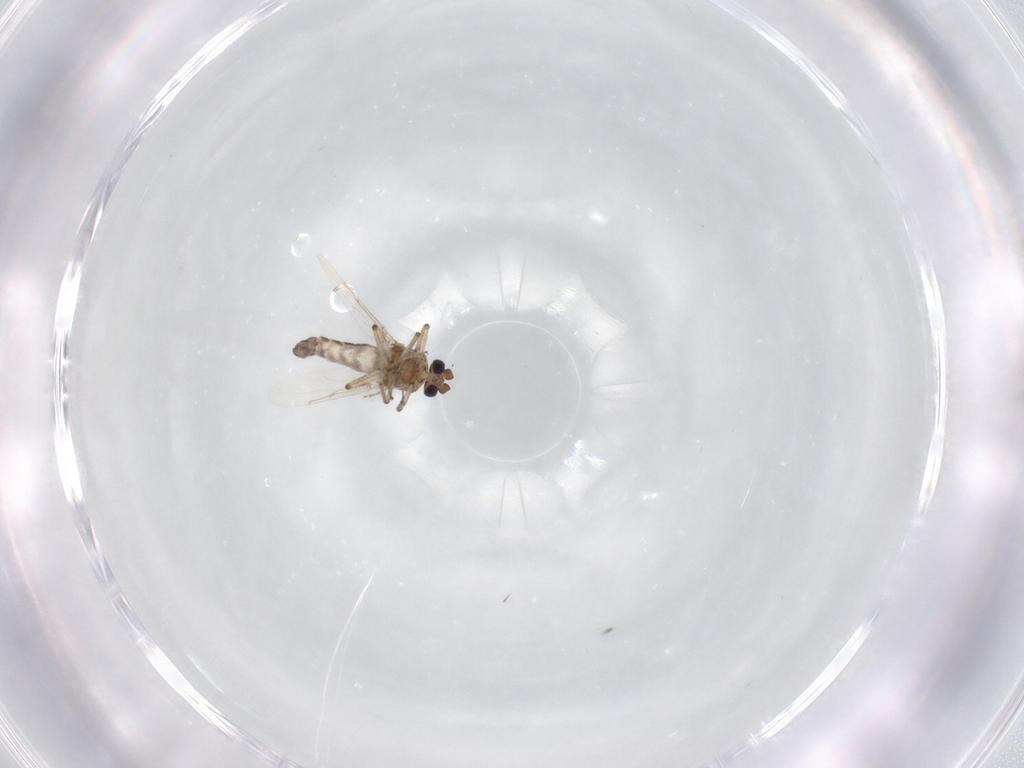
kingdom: Animalia
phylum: Arthropoda
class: Insecta
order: Diptera
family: Ceratopogonidae
